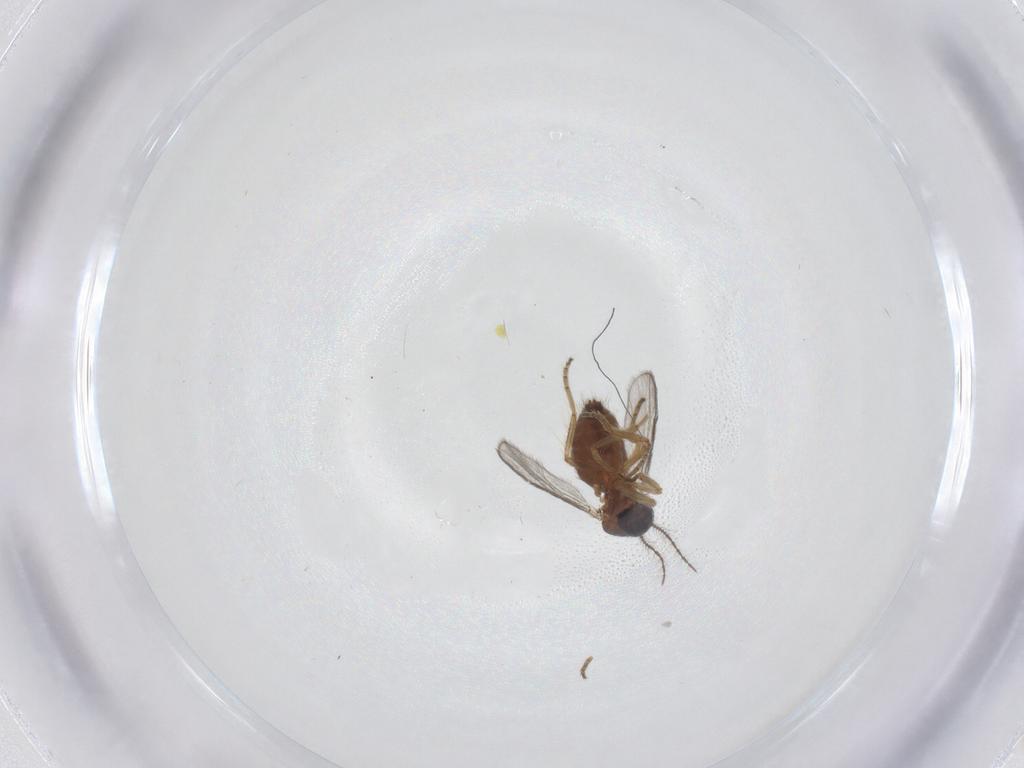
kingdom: Animalia
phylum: Arthropoda
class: Insecta
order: Diptera
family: Ceratopogonidae
